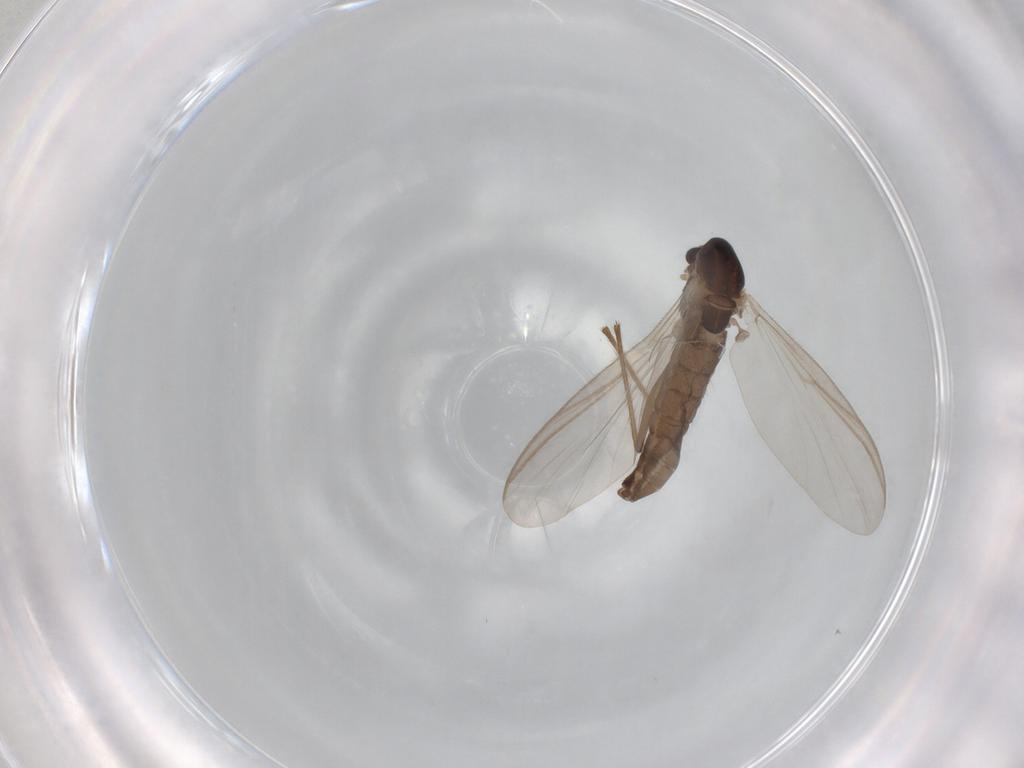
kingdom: Animalia
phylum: Arthropoda
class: Insecta
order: Diptera
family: Chironomidae
